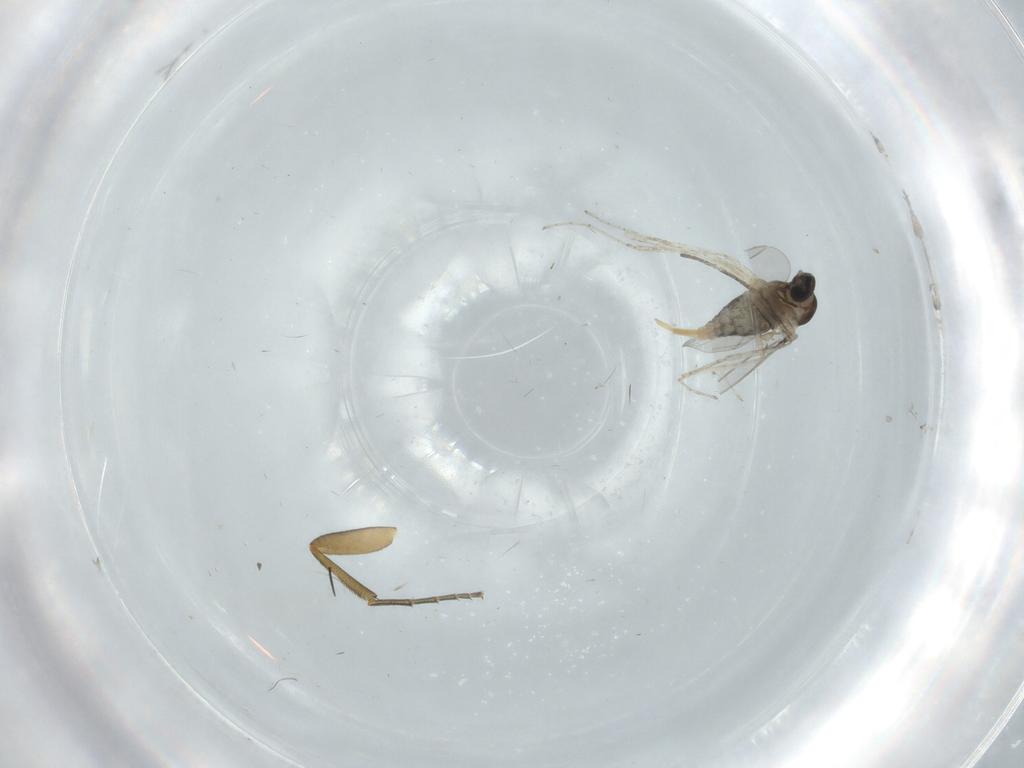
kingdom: Animalia
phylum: Arthropoda
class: Insecta
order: Diptera
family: Cecidomyiidae
